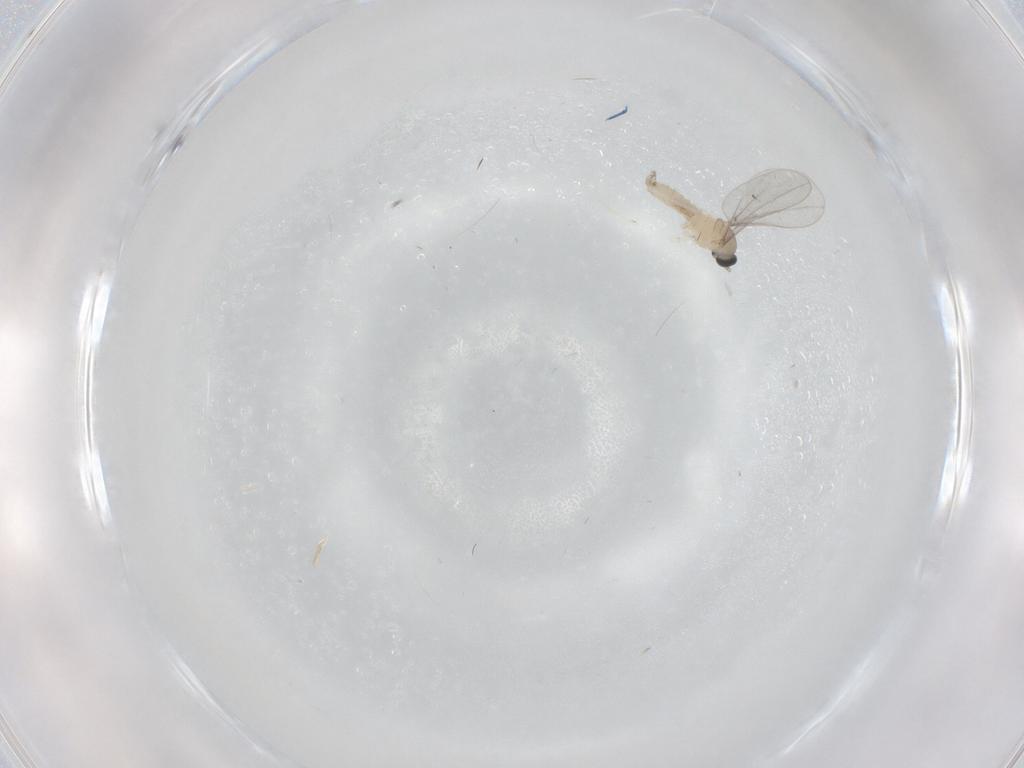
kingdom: Animalia
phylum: Arthropoda
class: Insecta
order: Diptera
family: Cecidomyiidae
